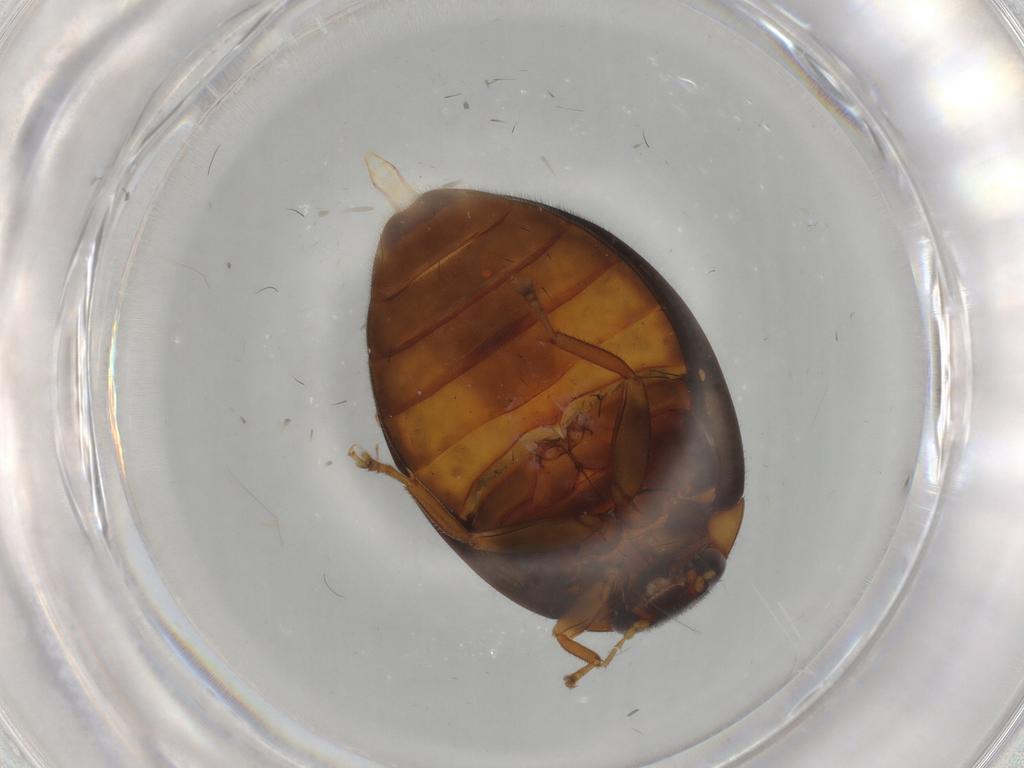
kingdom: Animalia
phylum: Arthropoda
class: Insecta
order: Coleoptera
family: Scirtidae
